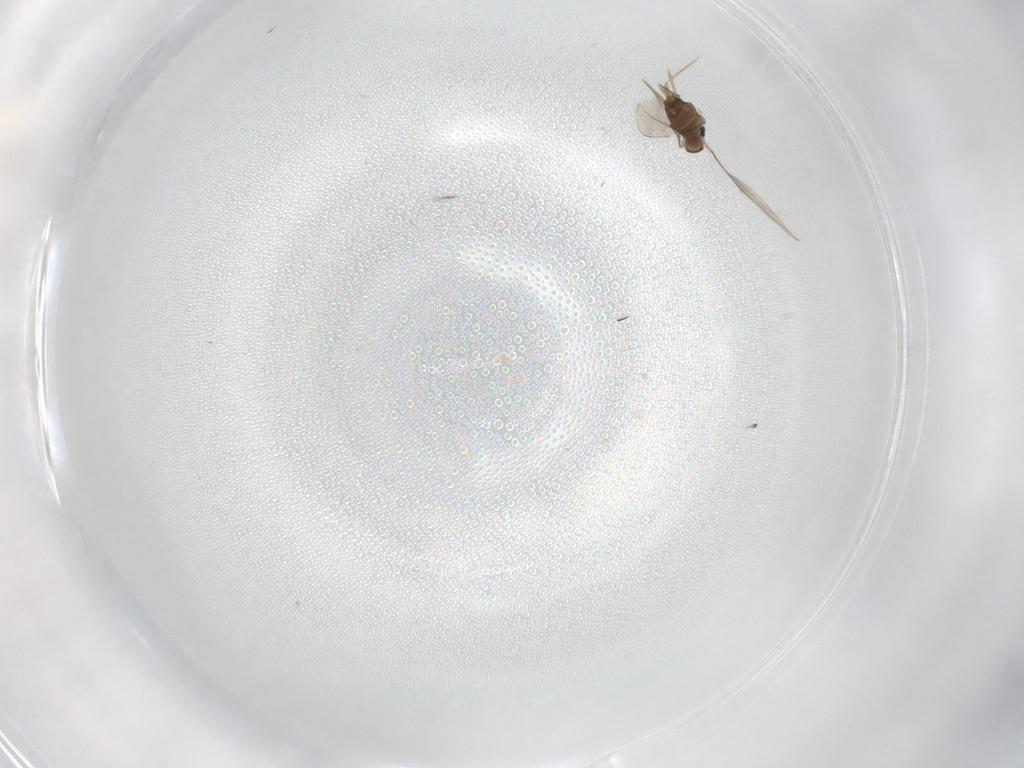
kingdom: Animalia
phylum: Arthropoda
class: Insecta
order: Diptera
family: Cecidomyiidae
